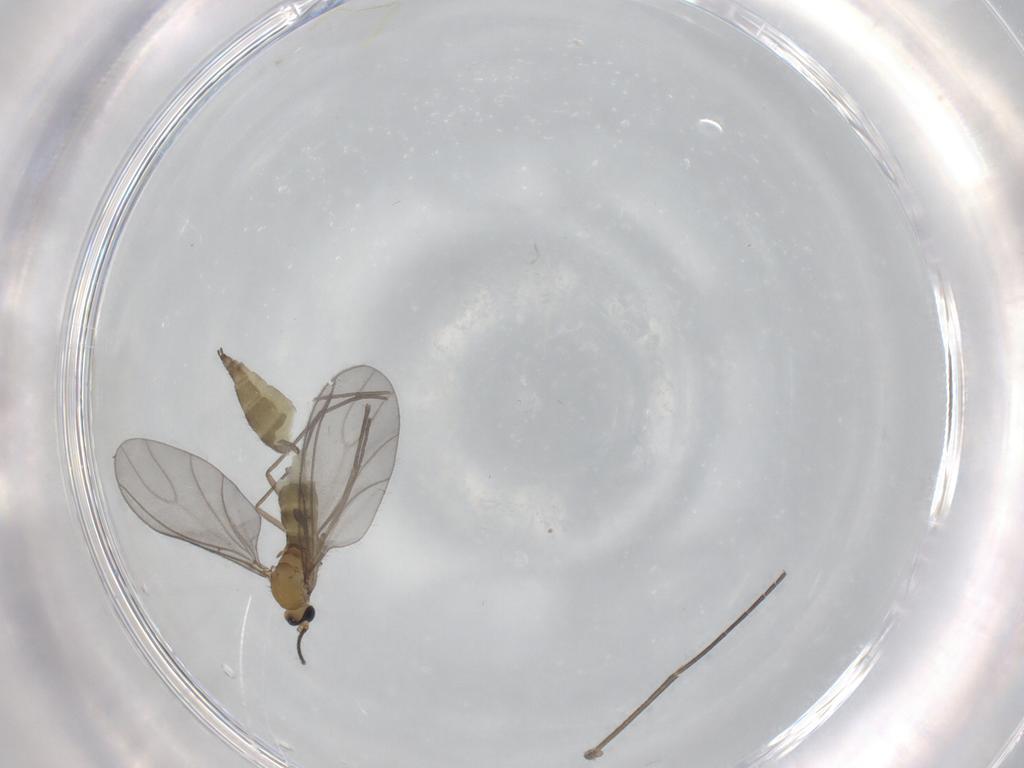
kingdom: Animalia
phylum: Arthropoda
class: Insecta
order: Diptera
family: Sciaridae
